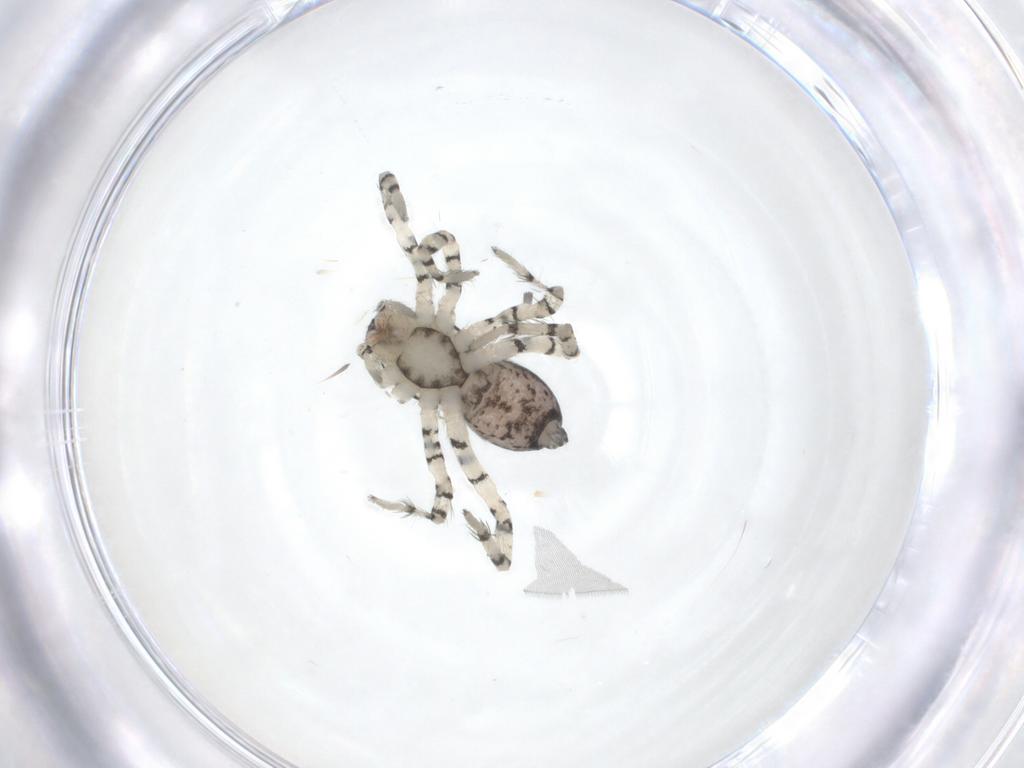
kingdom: Animalia
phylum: Arthropoda
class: Arachnida
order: Araneae
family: Anyphaenidae
